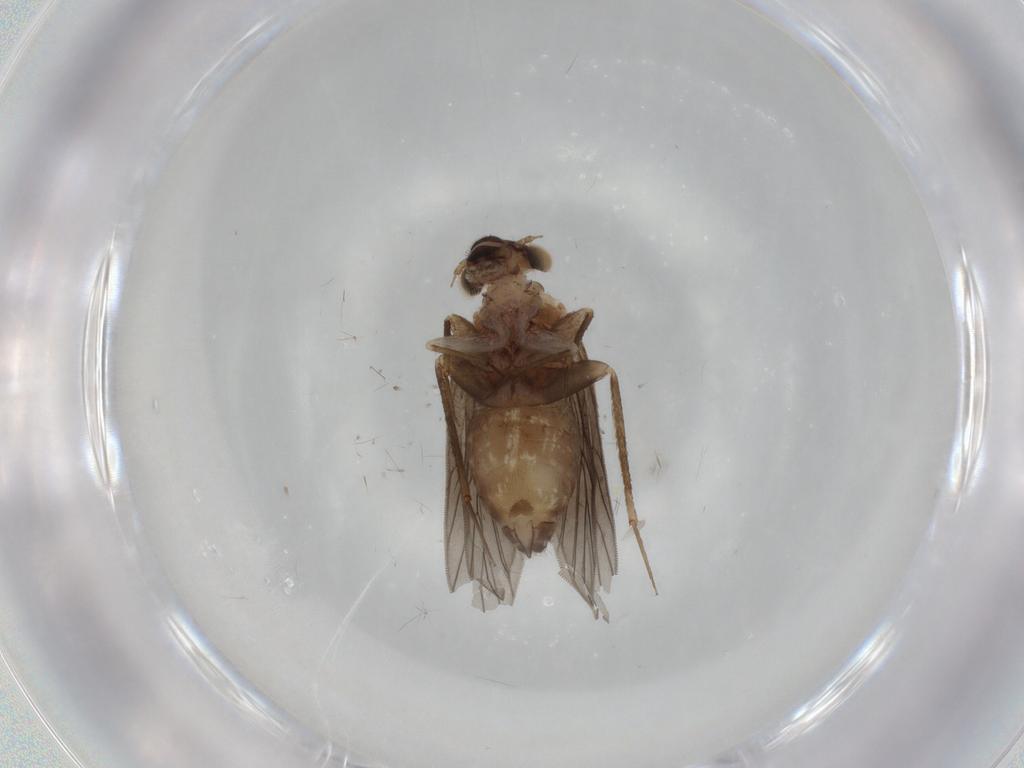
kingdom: Animalia
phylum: Arthropoda
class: Insecta
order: Psocodea
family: Lepidopsocidae
